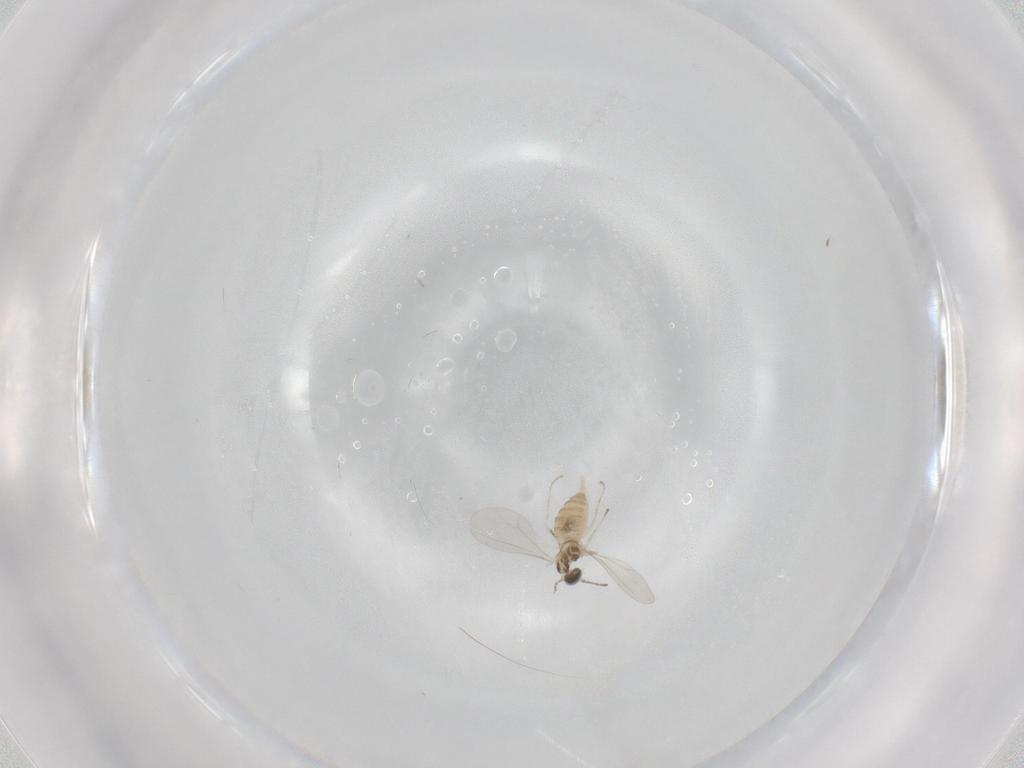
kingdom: Animalia
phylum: Arthropoda
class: Insecta
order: Diptera
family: Cecidomyiidae
